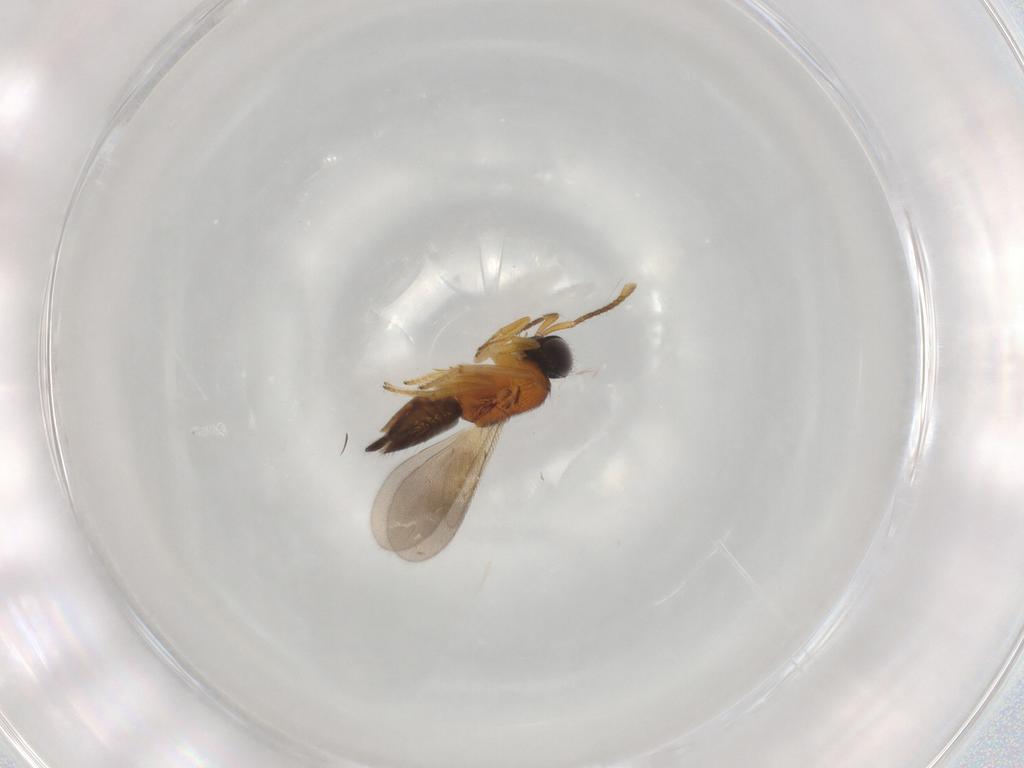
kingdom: Animalia
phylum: Arthropoda
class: Insecta
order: Hymenoptera
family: Encyrtidae
